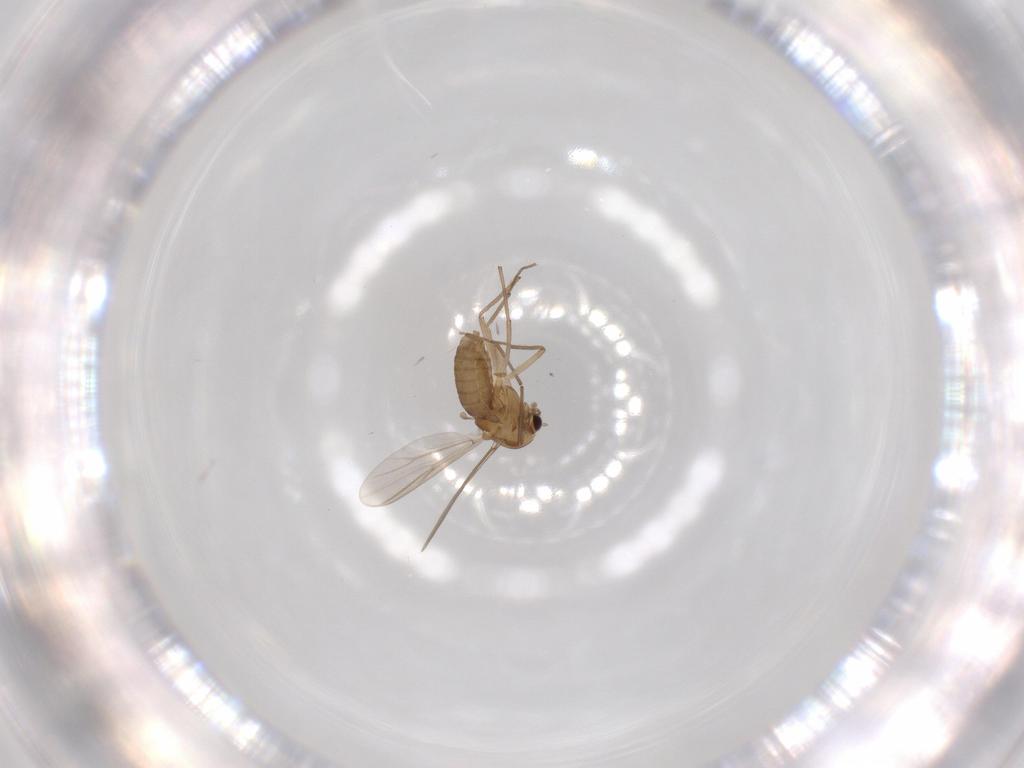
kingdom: Animalia
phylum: Arthropoda
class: Insecta
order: Diptera
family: Chironomidae
